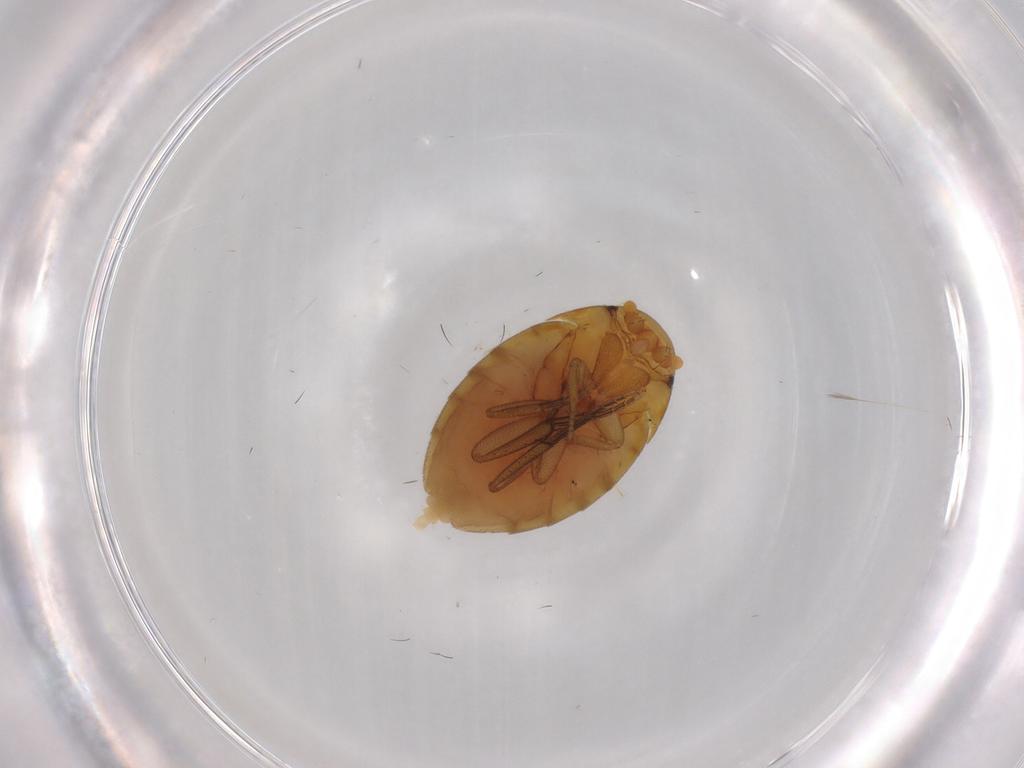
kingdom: Animalia
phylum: Arthropoda
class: Insecta
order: Diptera
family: Phoridae
